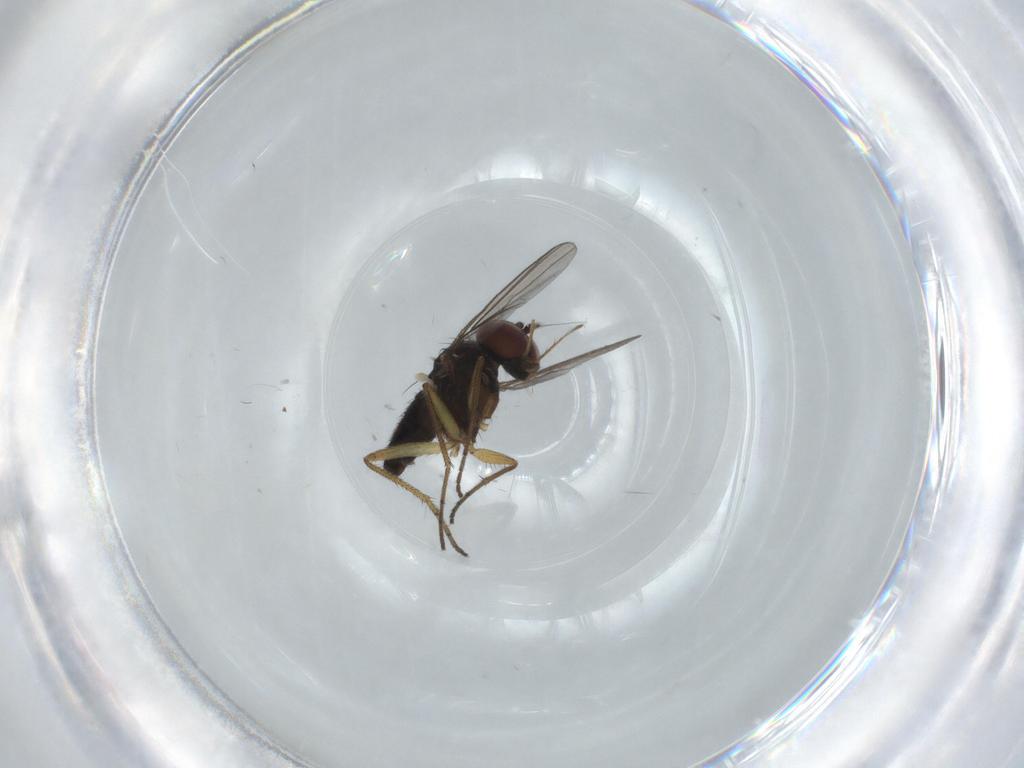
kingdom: Animalia
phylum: Arthropoda
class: Insecta
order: Diptera
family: Dolichopodidae
